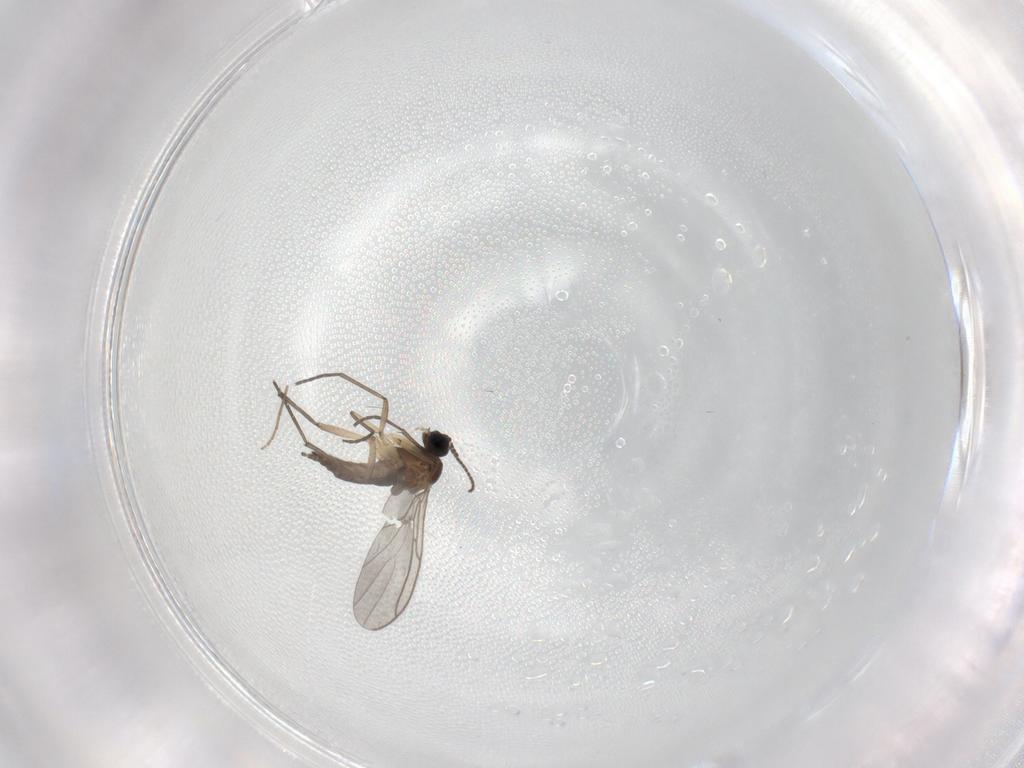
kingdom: Animalia
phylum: Arthropoda
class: Insecta
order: Diptera
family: Sciaridae
